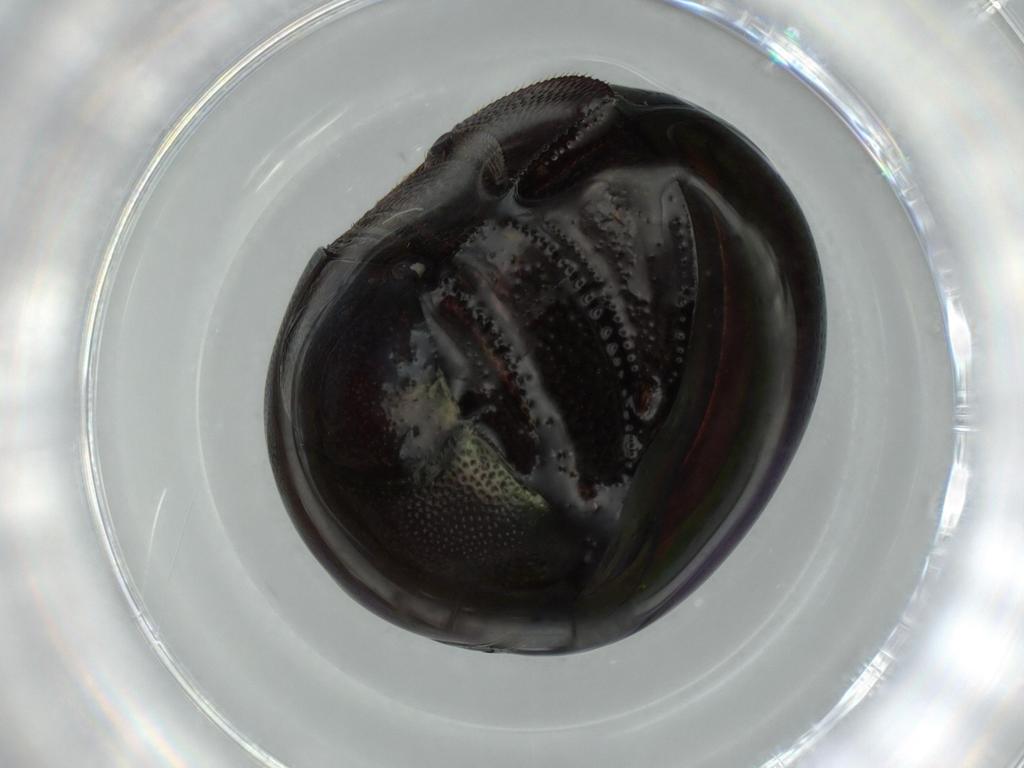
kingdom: Animalia
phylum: Arthropoda
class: Insecta
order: Coleoptera
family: Hybosoridae
